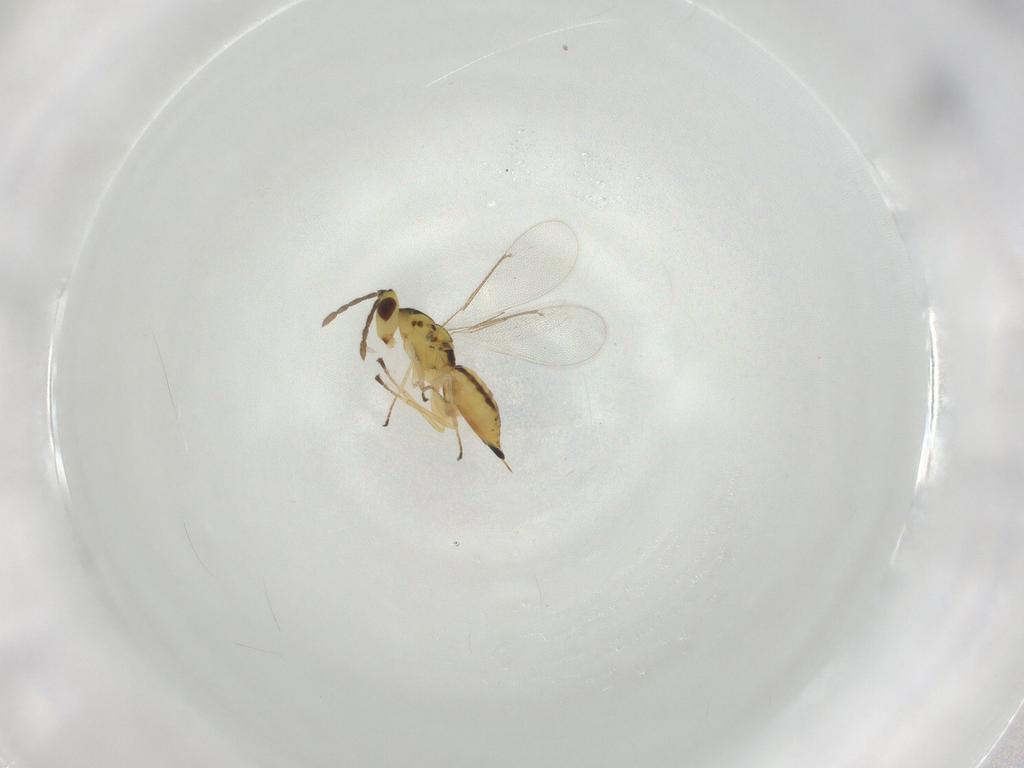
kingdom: Animalia
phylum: Arthropoda
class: Insecta
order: Hymenoptera
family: Eulophidae
